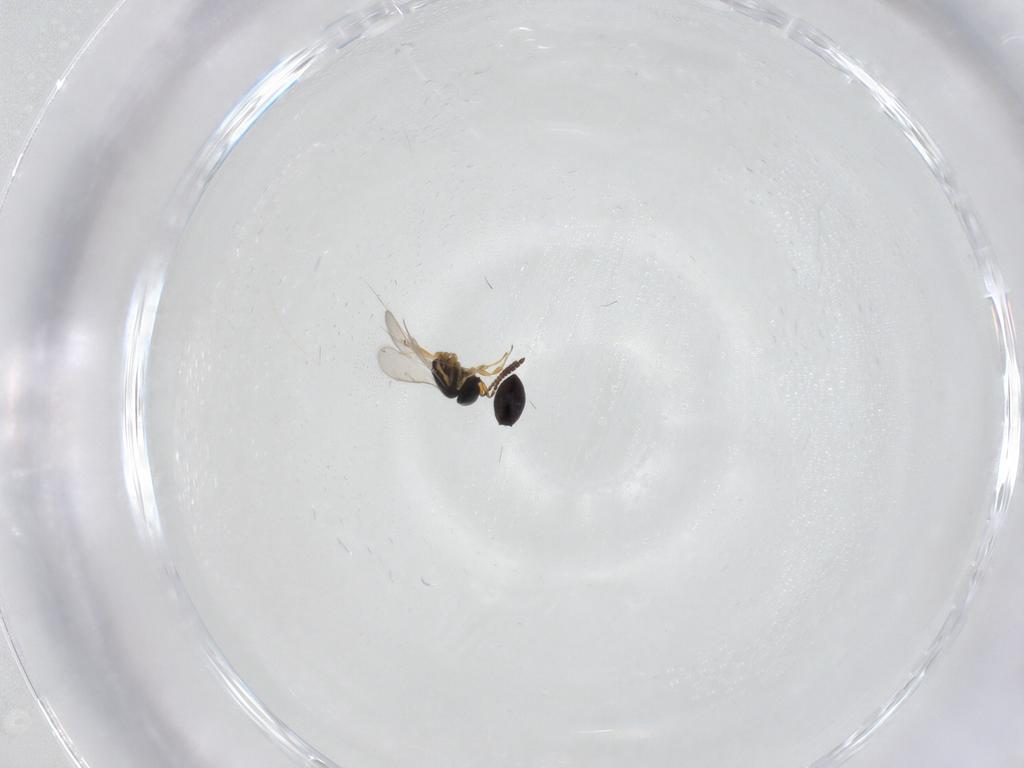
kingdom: Animalia
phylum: Arthropoda
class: Insecta
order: Hymenoptera
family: Scelionidae
